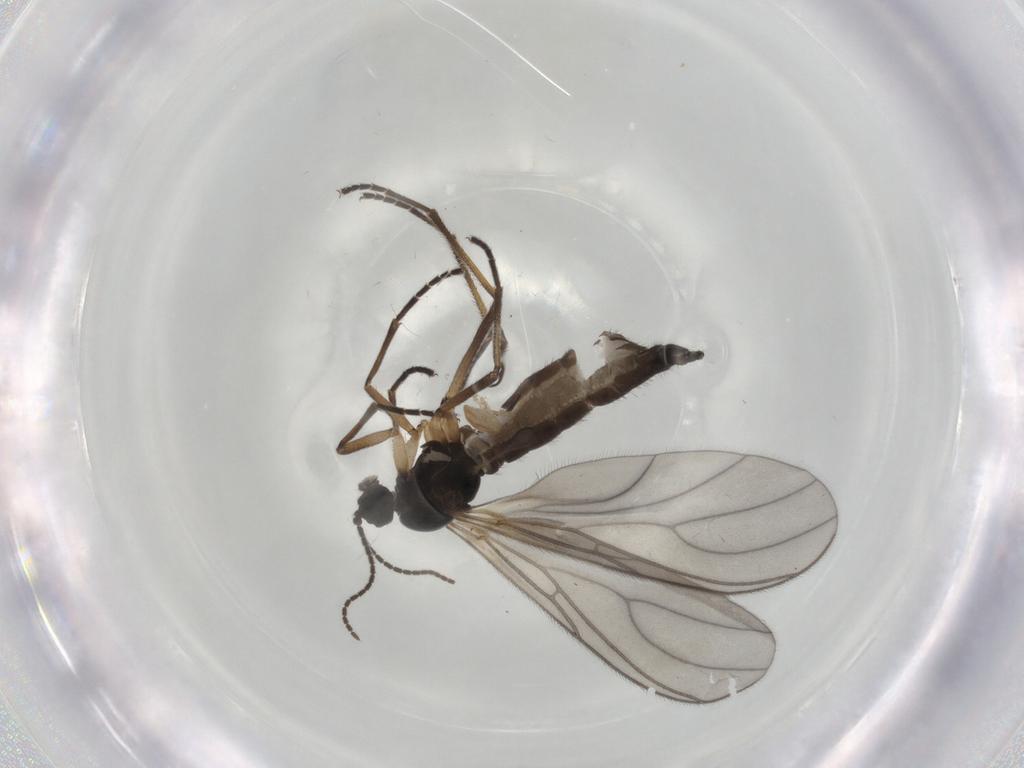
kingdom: Animalia
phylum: Arthropoda
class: Insecta
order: Diptera
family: Sciaridae
